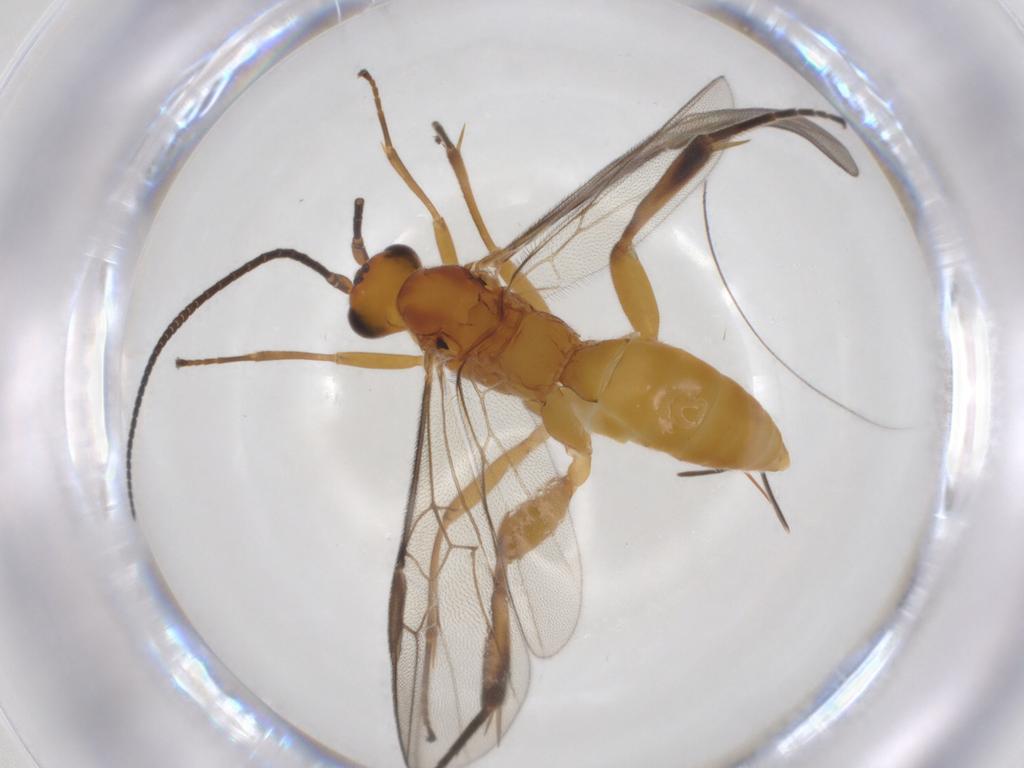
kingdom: Animalia
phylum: Arthropoda
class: Insecta
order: Hymenoptera
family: Braconidae
